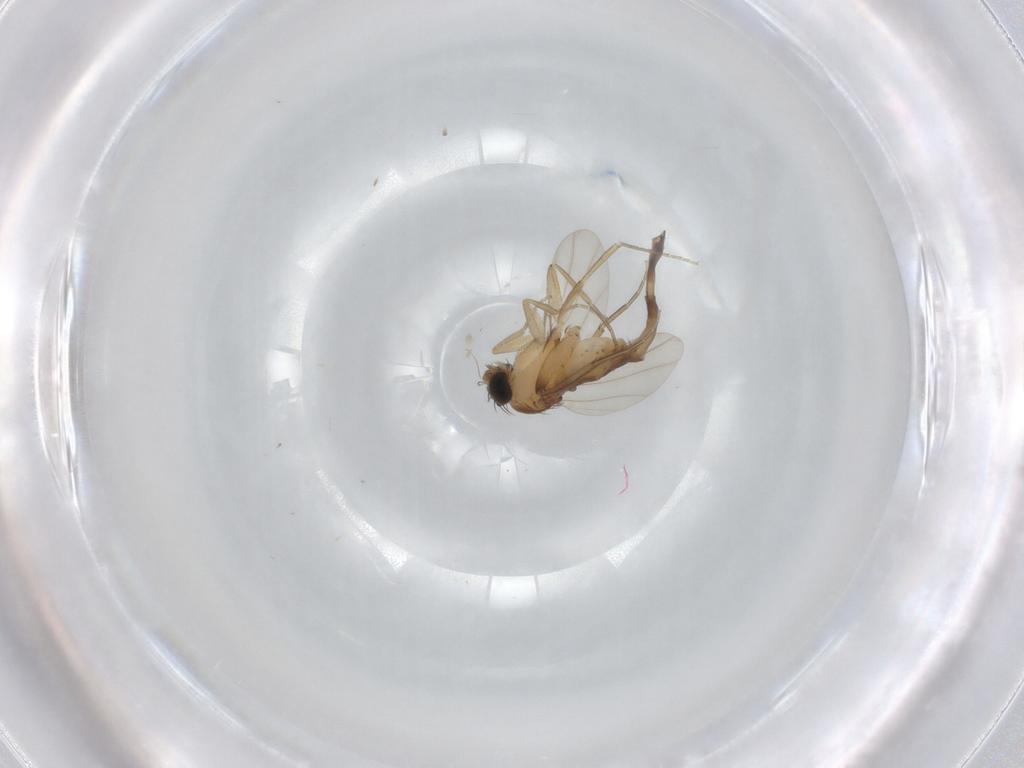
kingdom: Animalia
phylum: Arthropoda
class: Insecta
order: Diptera
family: Phoridae
